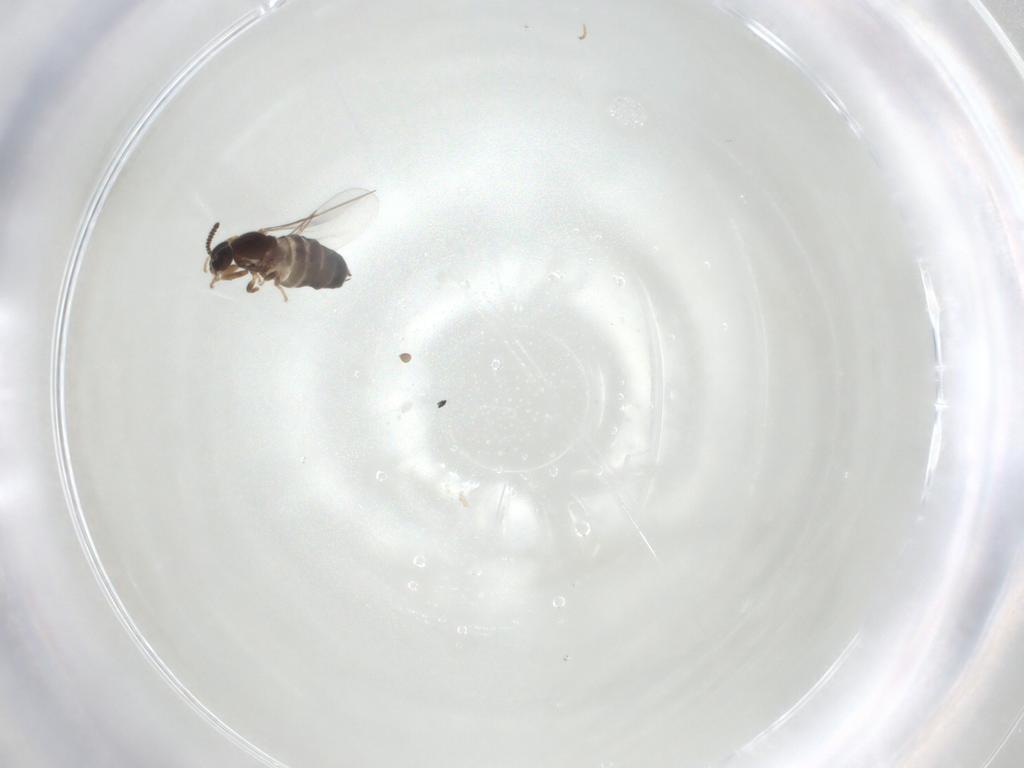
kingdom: Animalia
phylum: Arthropoda
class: Insecta
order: Diptera
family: Scatopsidae
